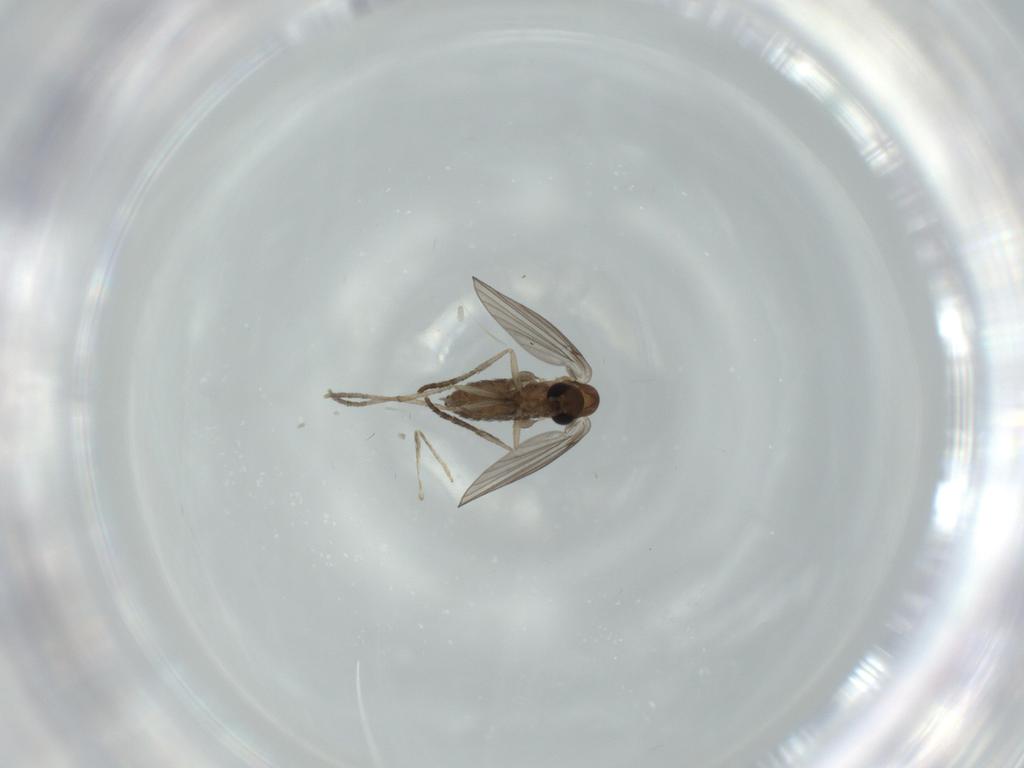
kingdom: Animalia
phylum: Arthropoda
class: Insecta
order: Diptera
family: Psychodidae
